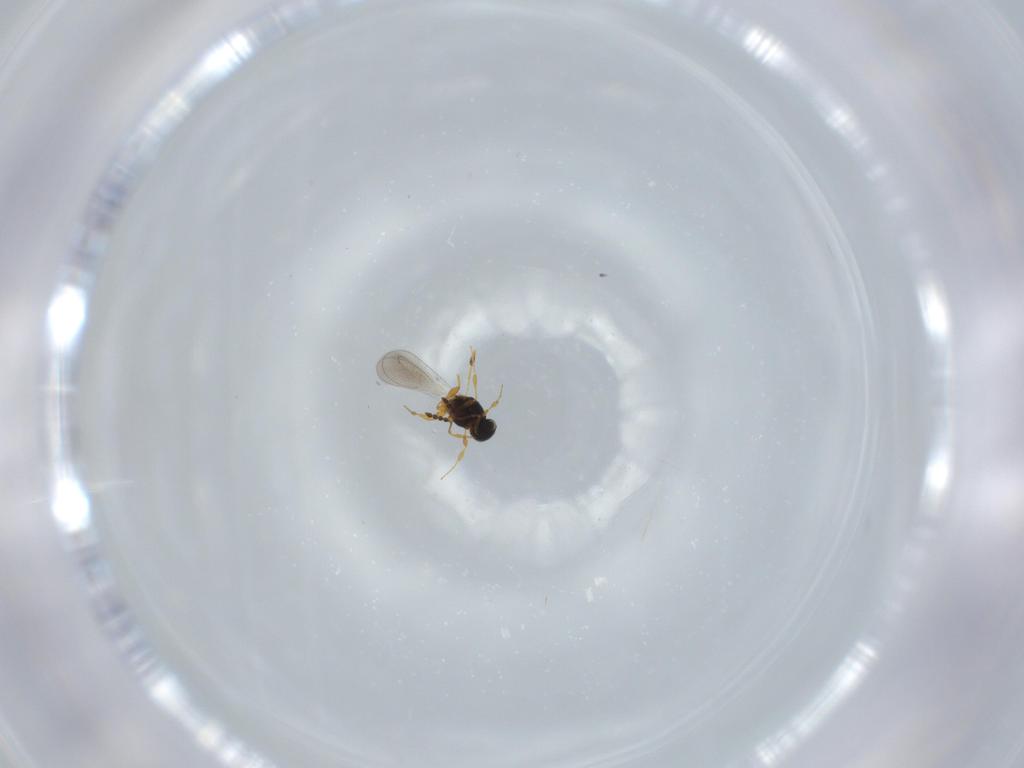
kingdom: Animalia
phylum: Arthropoda
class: Insecta
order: Hymenoptera
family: Platygastridae
